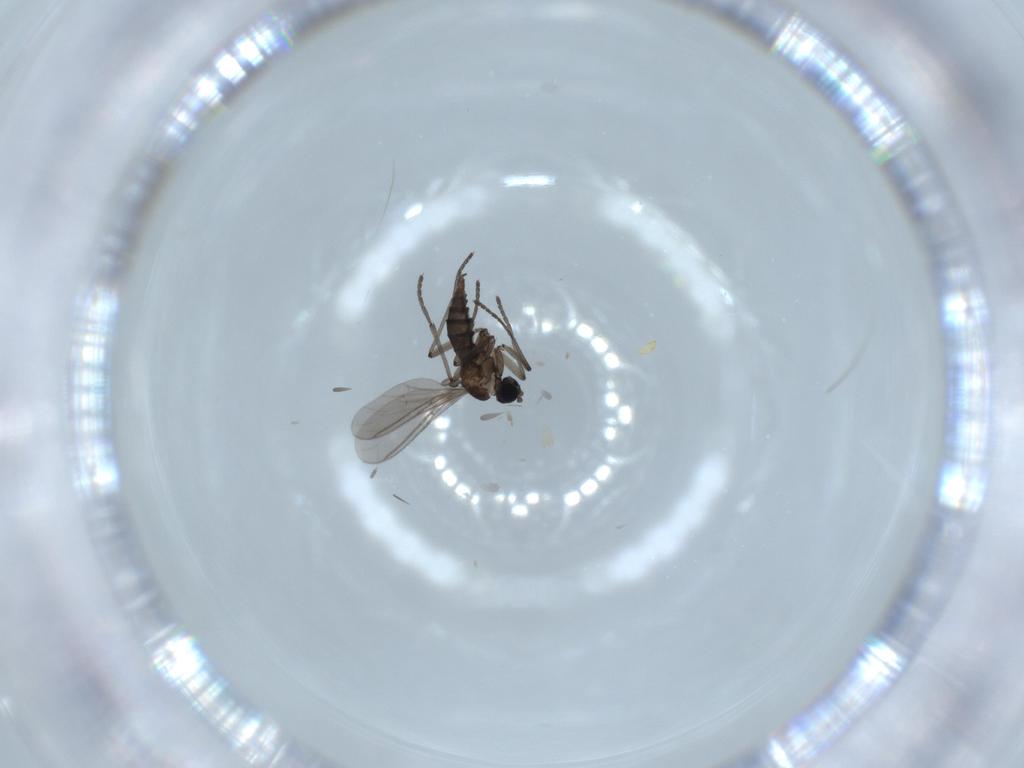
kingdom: Animalia
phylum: Arthropoda
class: Insecta
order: Diptera
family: Sciaridae
